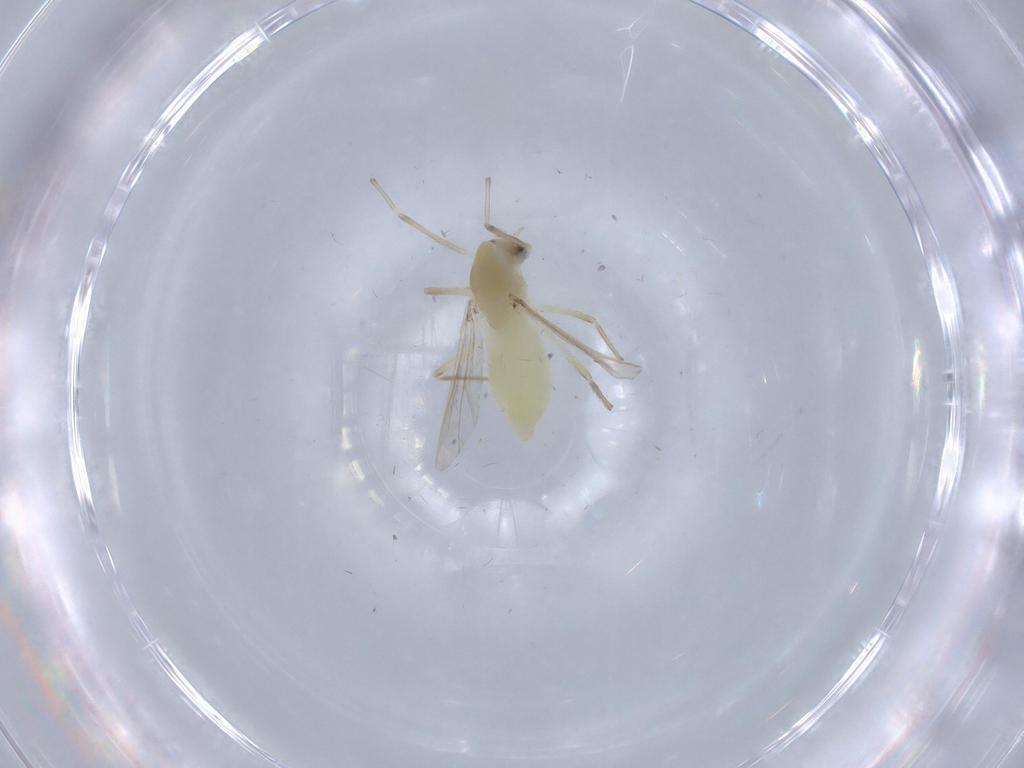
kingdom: Animalia
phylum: Arthropoda
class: Insecta
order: Diptera
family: Chironomidae
